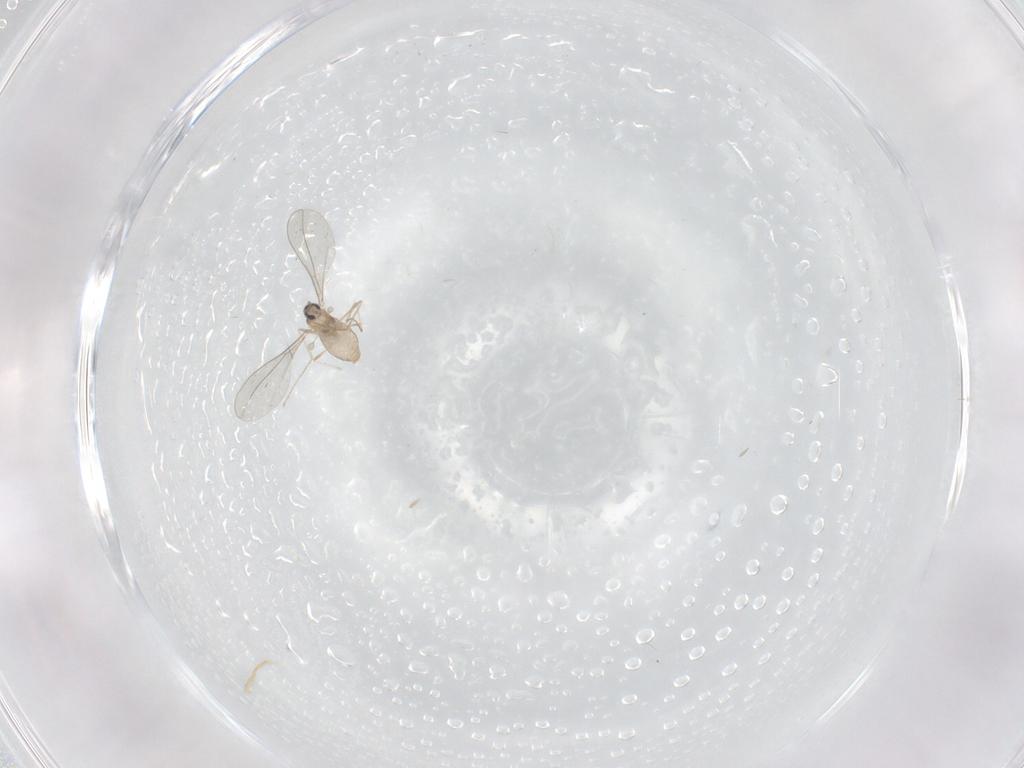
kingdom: Animalia
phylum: Arthropoda
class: Insecta
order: Diptera
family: Cecidomyiidae
